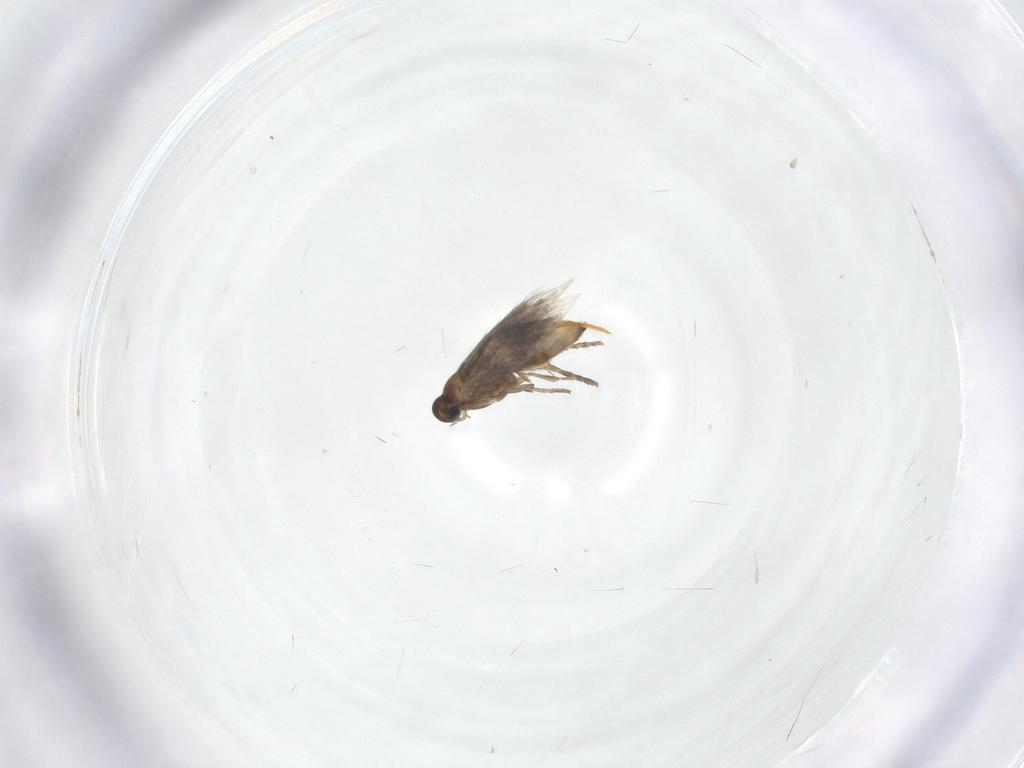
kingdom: Animalia
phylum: Arthropoda
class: Insecta
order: Lepidoptera
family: Heliozelidae
